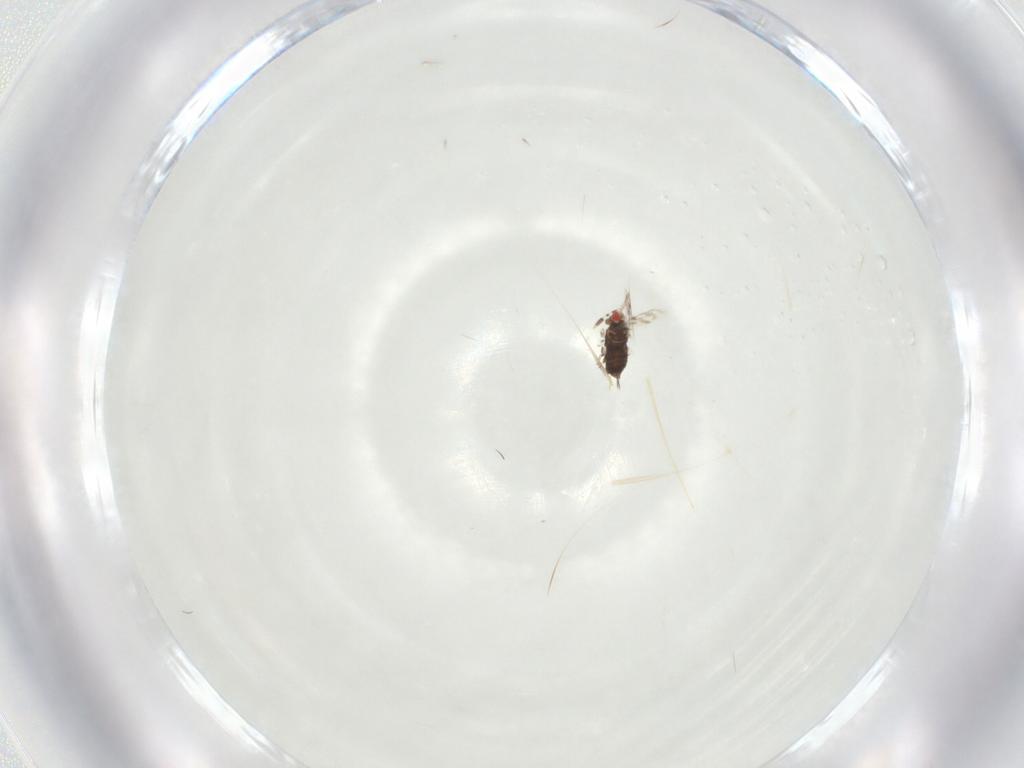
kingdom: Animalia
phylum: Arthropoda
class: Insecta
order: Hymenoptera
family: Azotidae
